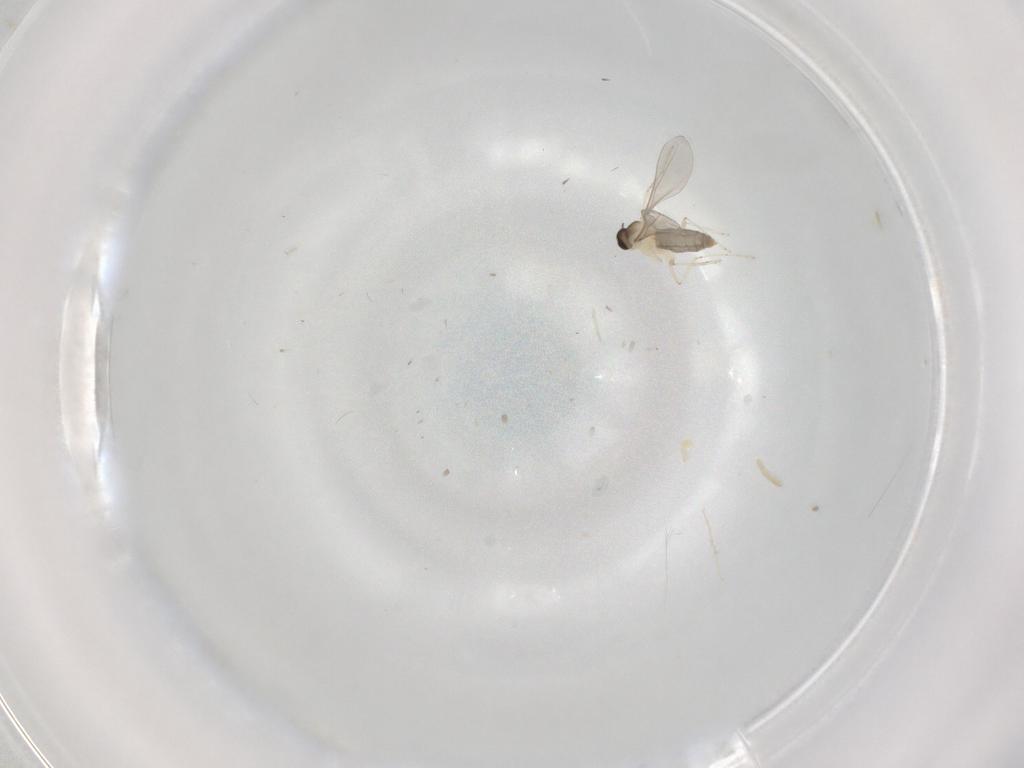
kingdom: Animalia
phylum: Arthropoda
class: Insecta
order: Diptera
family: Cecidomyiidae
